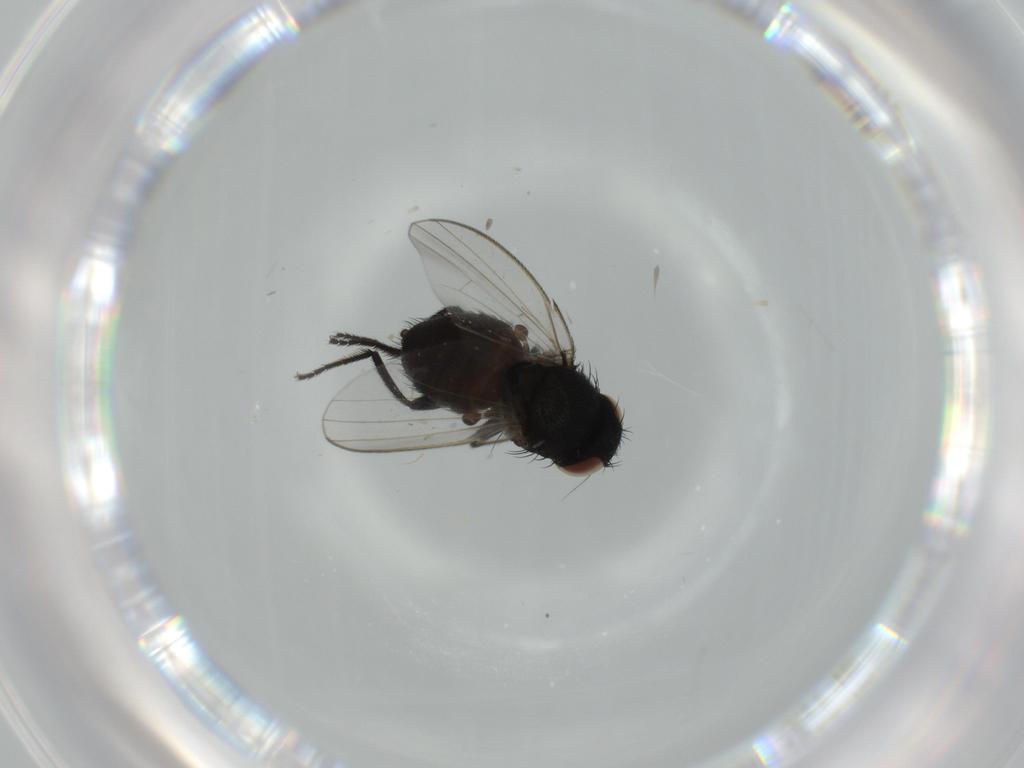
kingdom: Animalia
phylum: Arthropoda
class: Insecta
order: Diptera
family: Milichiidae
